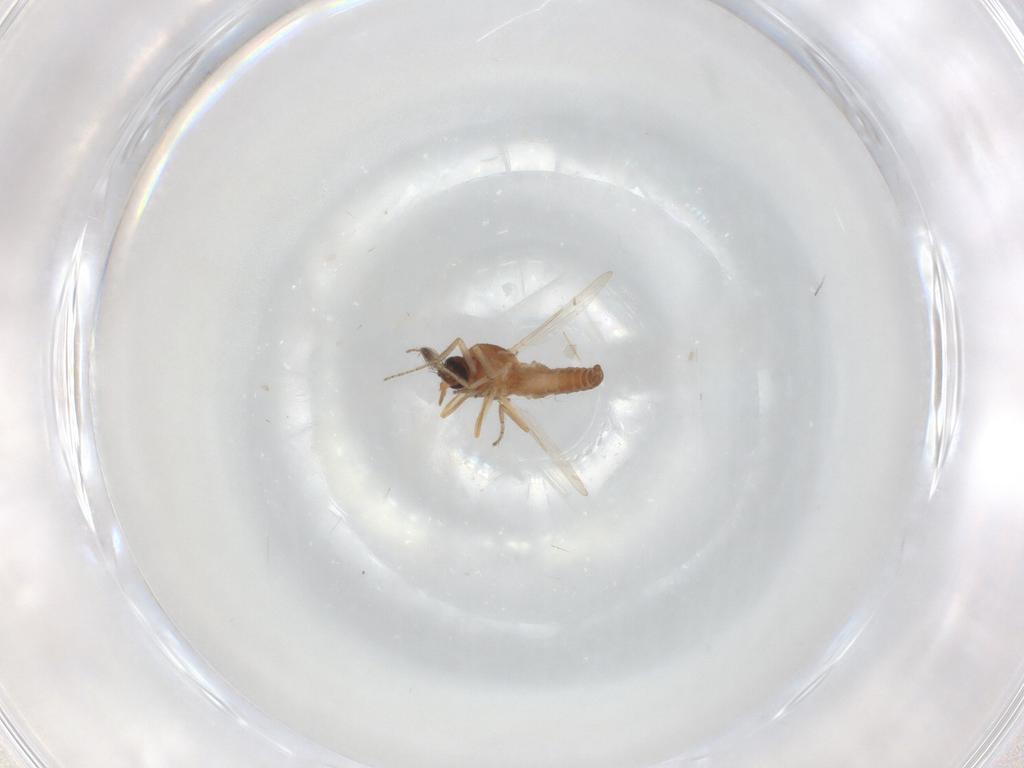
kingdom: Animalia
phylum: Arthropoda
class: Insecta
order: Diptera
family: Ceratopogonidae
